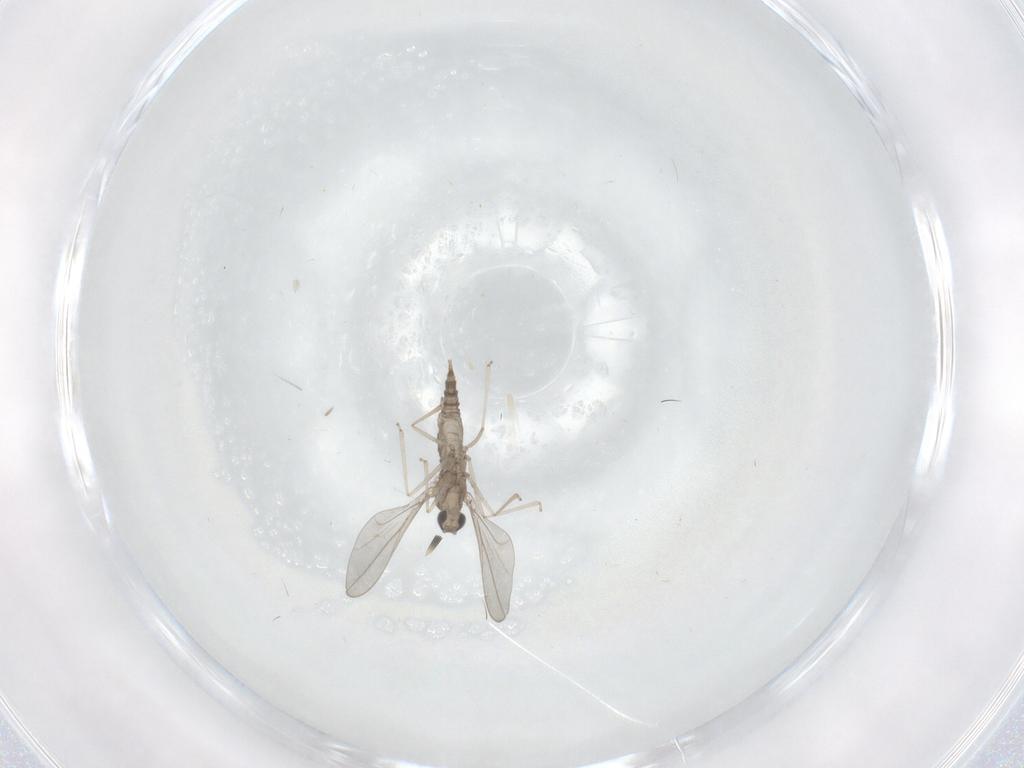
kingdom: Animalia
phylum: Arthropoda
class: Insecta
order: Diptera
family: Cecidomyiidae
